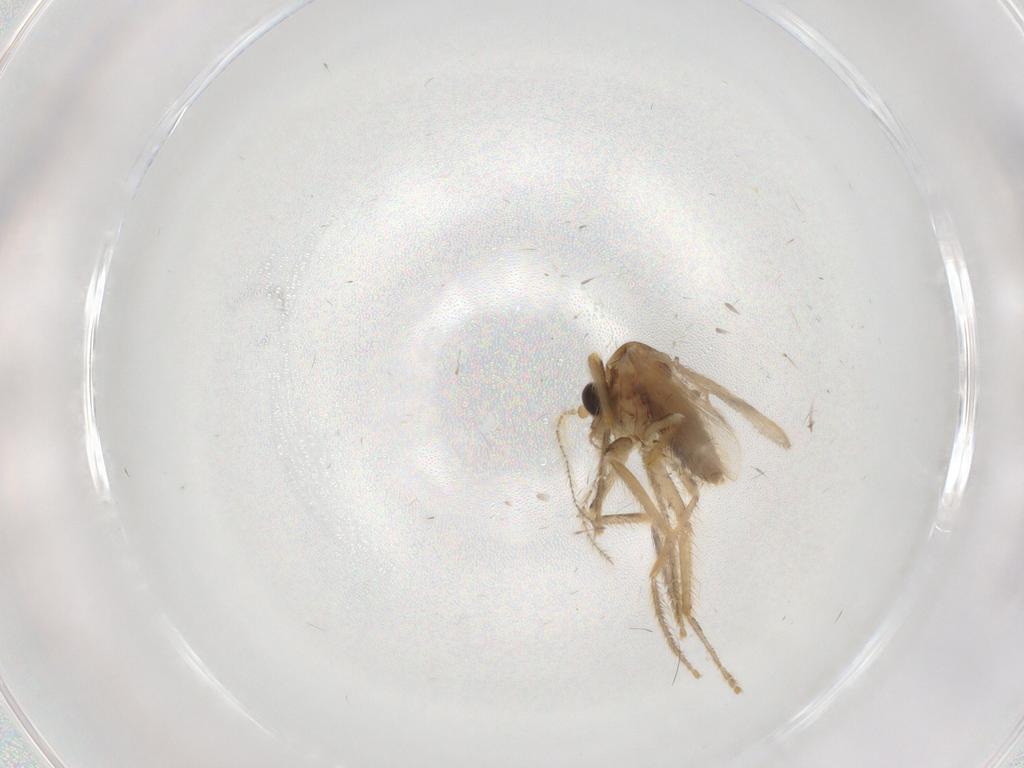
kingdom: Animalia
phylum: Arthropoda
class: Insecta
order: Diptera
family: Corethrellidae
